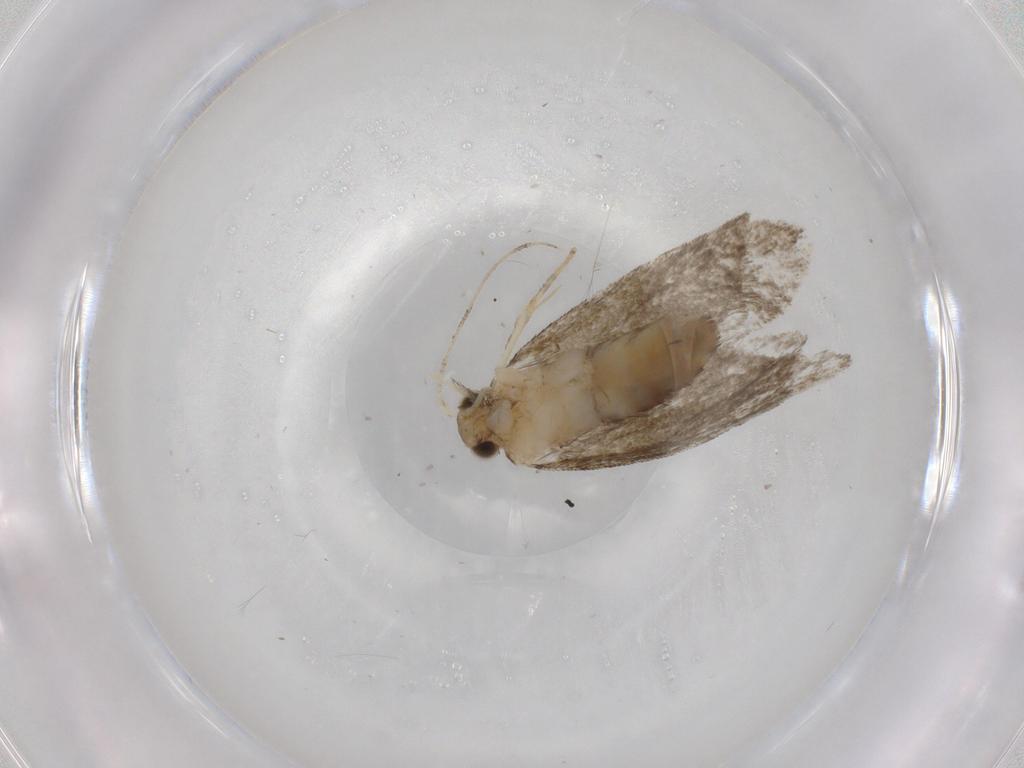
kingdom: Animalia
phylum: Arthropoda
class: Insecta
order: Lepidoptera
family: Tineidae
